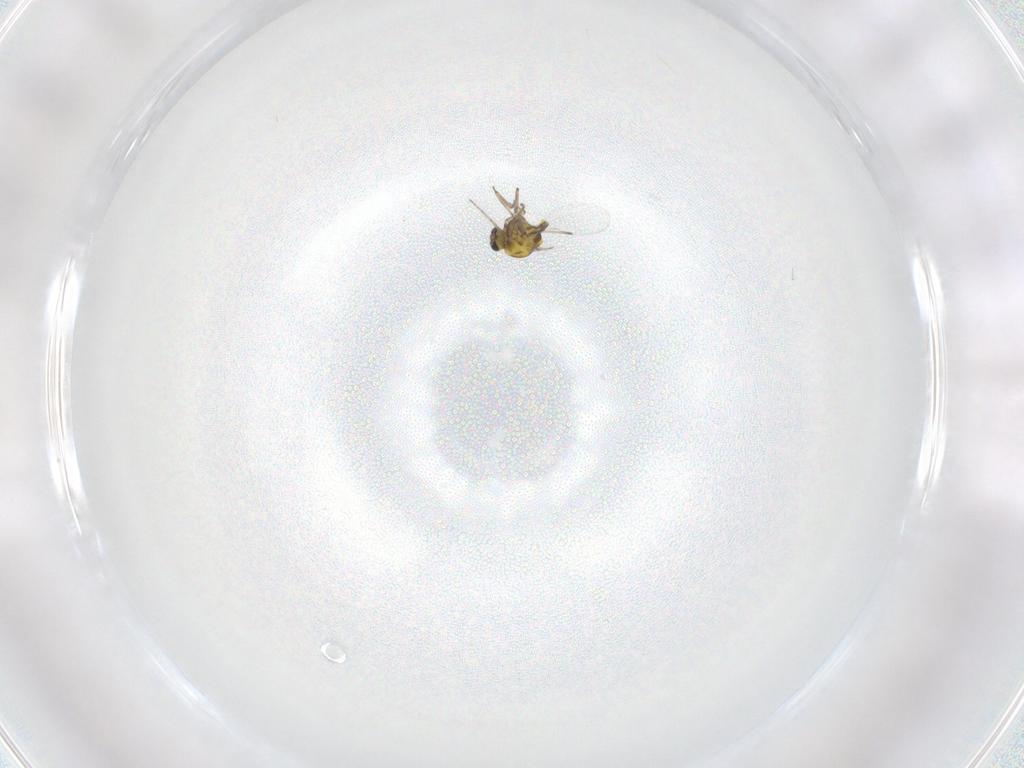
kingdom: Animalia
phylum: Arthropoda
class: Insecta
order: Diptera
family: Ceratopogonidae
